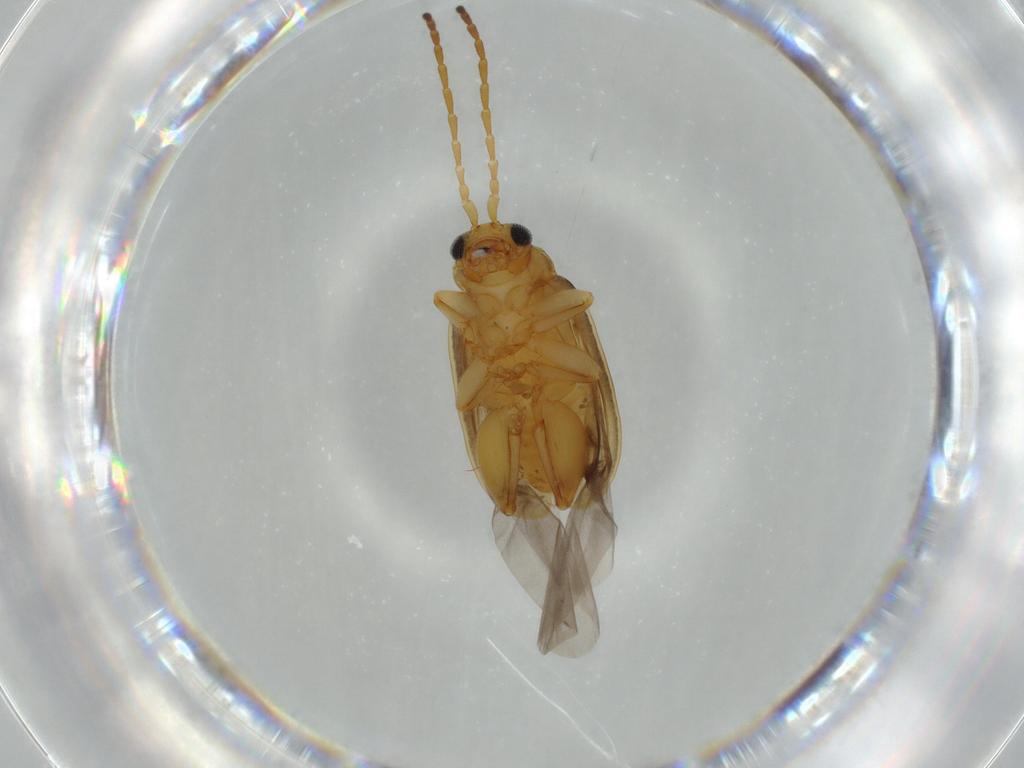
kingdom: Animalia
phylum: Arthropoda
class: Insecta
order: Coleoptera
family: Chrysomelidae
